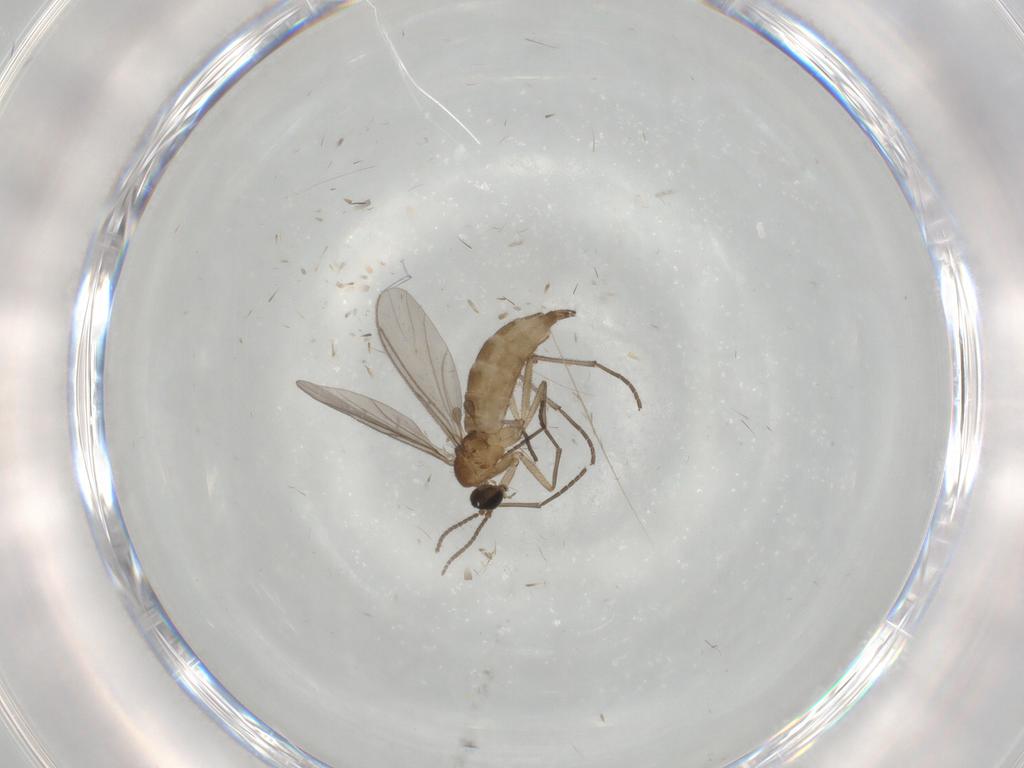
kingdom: Animalia
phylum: Arthropoda
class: Insecta
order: Diptera
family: Sciaridae
